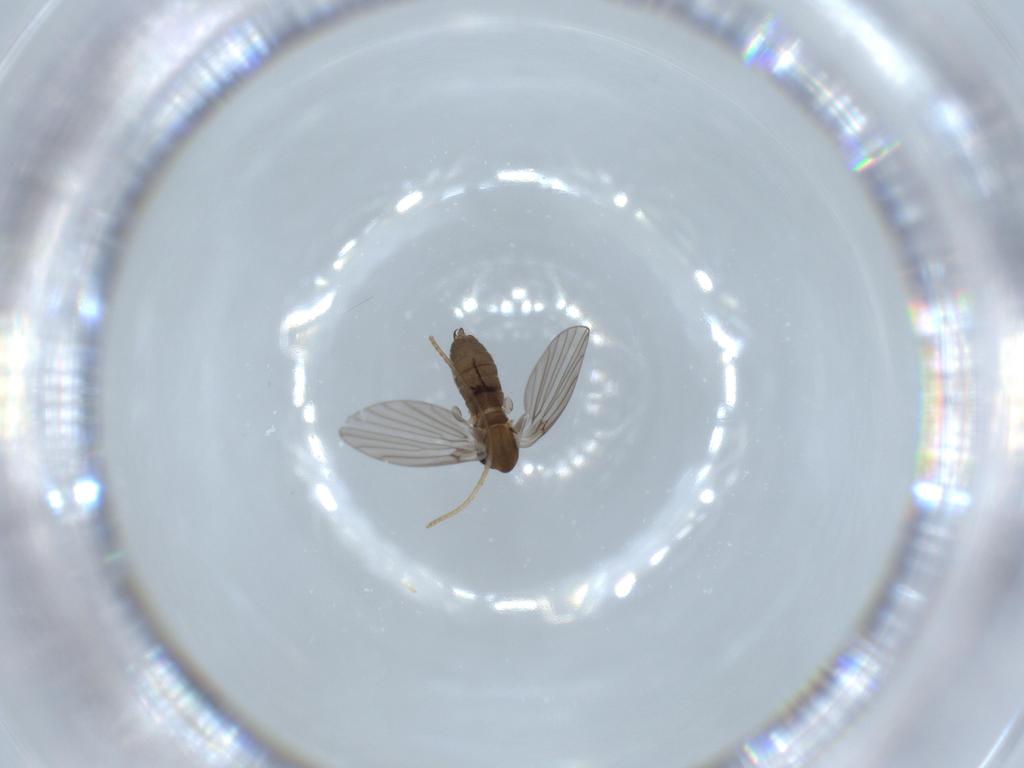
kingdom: Animalia
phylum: Arthropoda
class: Insecta
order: Diptera
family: Psychodidae
